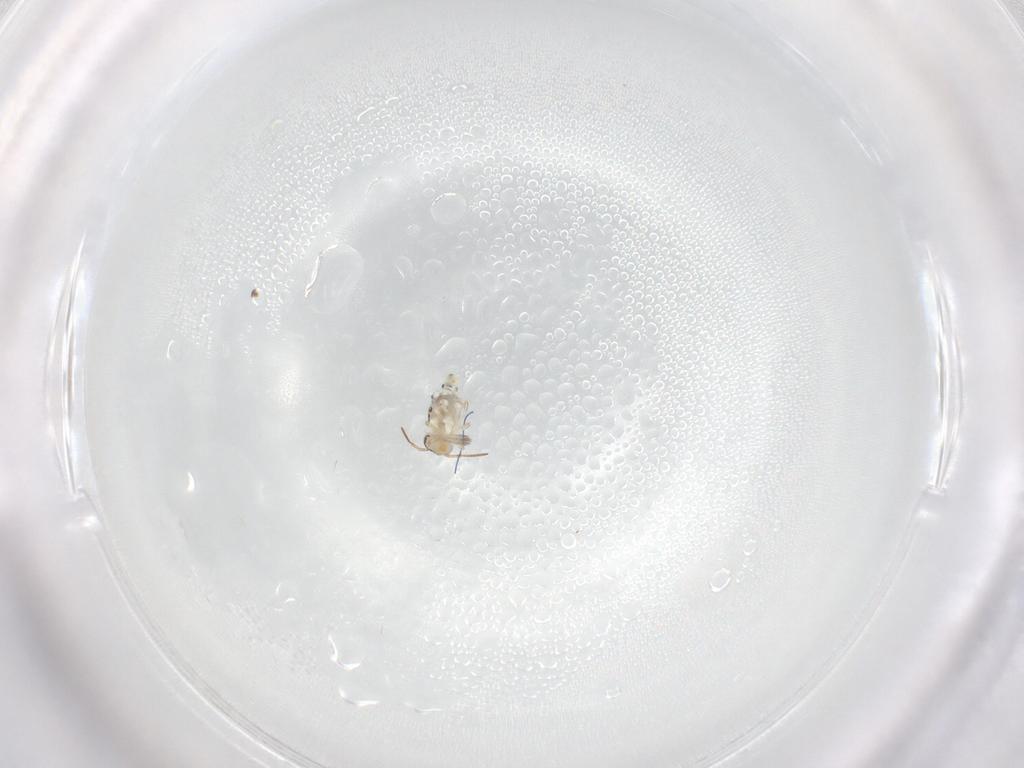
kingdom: Animalia
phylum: Arthropoda
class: Collembola
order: Symphypleona
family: Bourletiellidae
